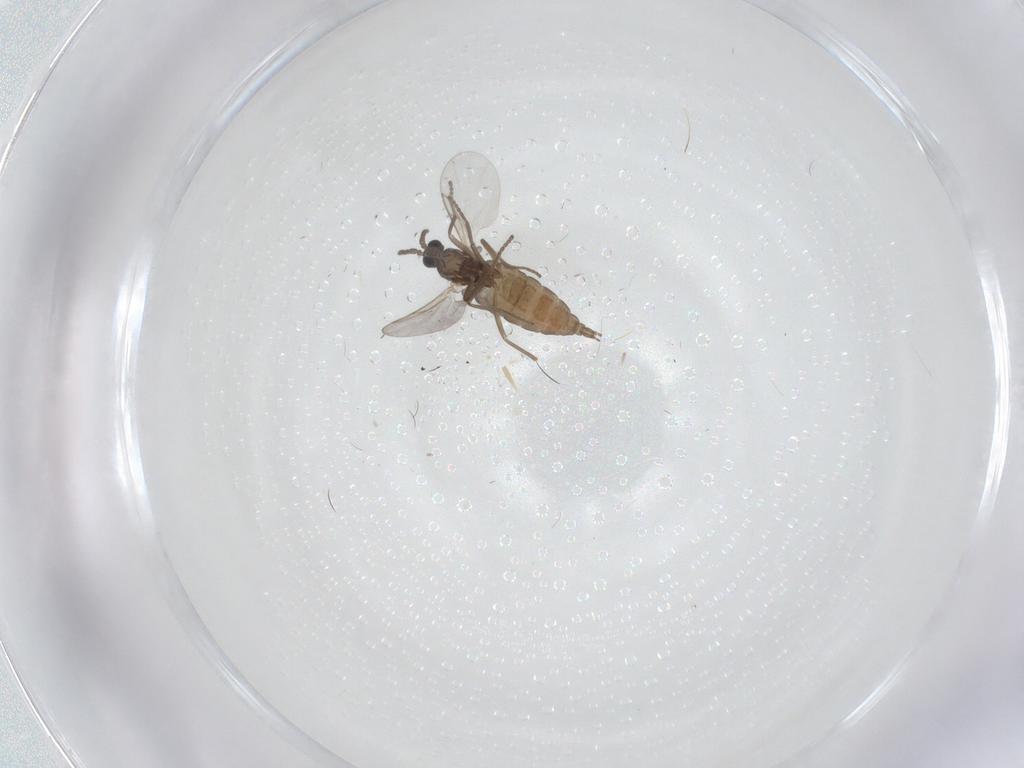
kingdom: Animalia
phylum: Arthropoda
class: Insecta
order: Diptera
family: Cecidomyiidae
